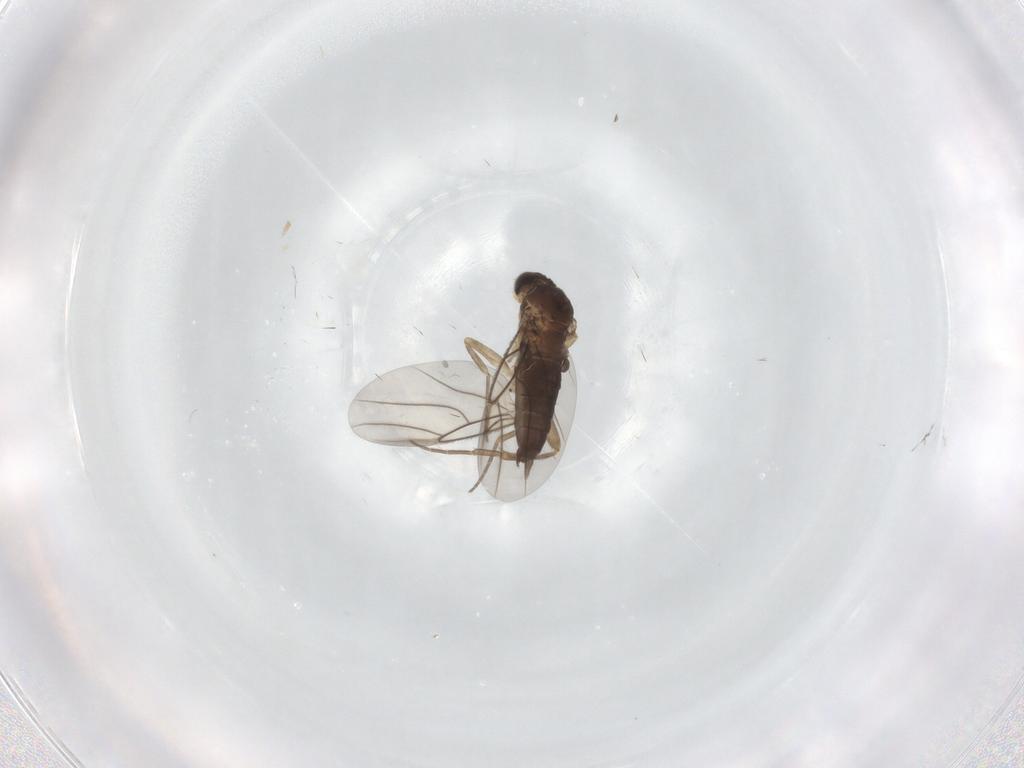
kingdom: Animalia
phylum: Arthropoda
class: Insecta
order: Diptera
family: Phoridae
